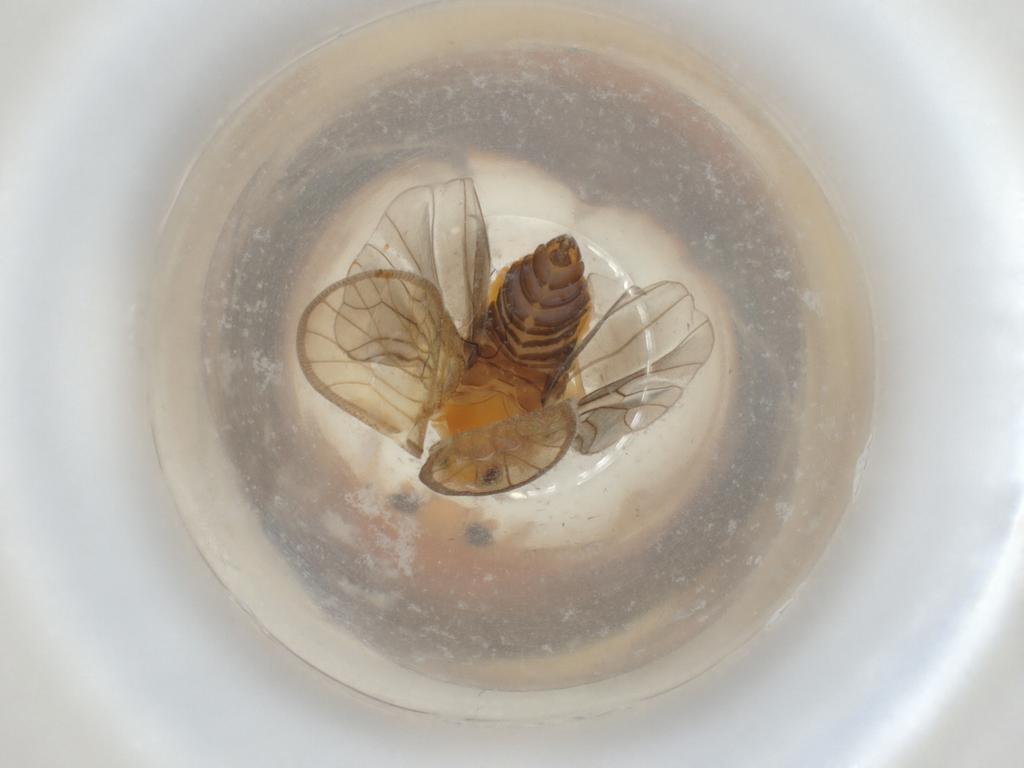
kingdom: Animalia
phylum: Arthropoda
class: Insecta
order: Hemiptera
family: Meenoplidae
